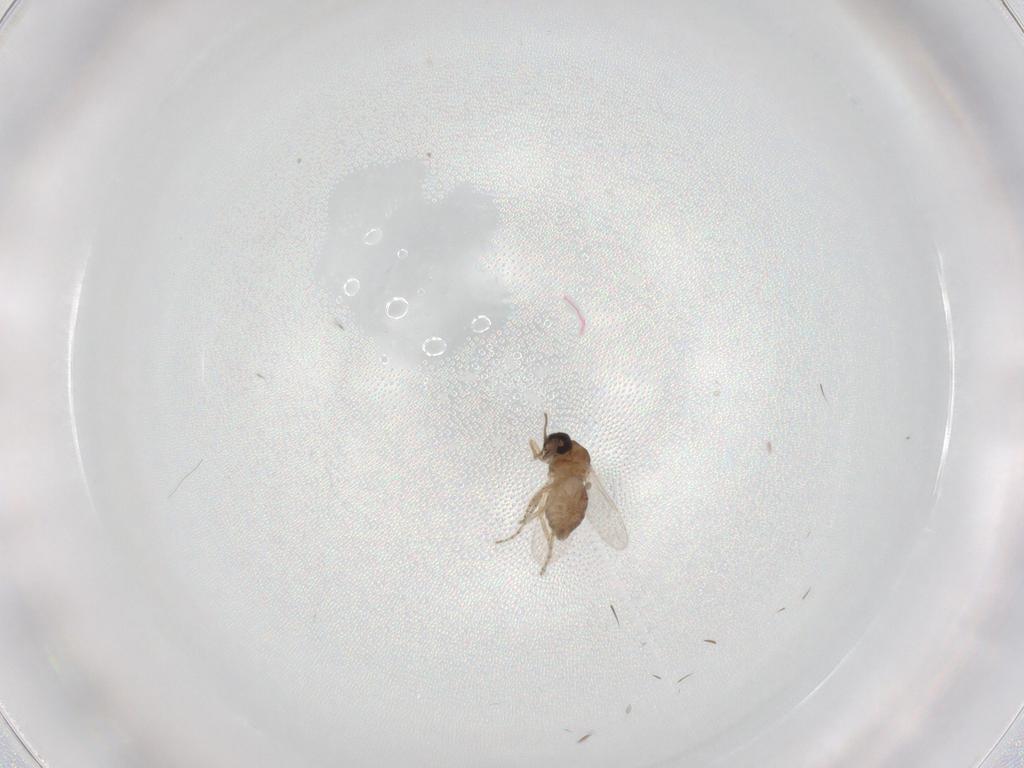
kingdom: Animalia
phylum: Arthropoda
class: Insecta
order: Diptera
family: Ceratopogonidae
